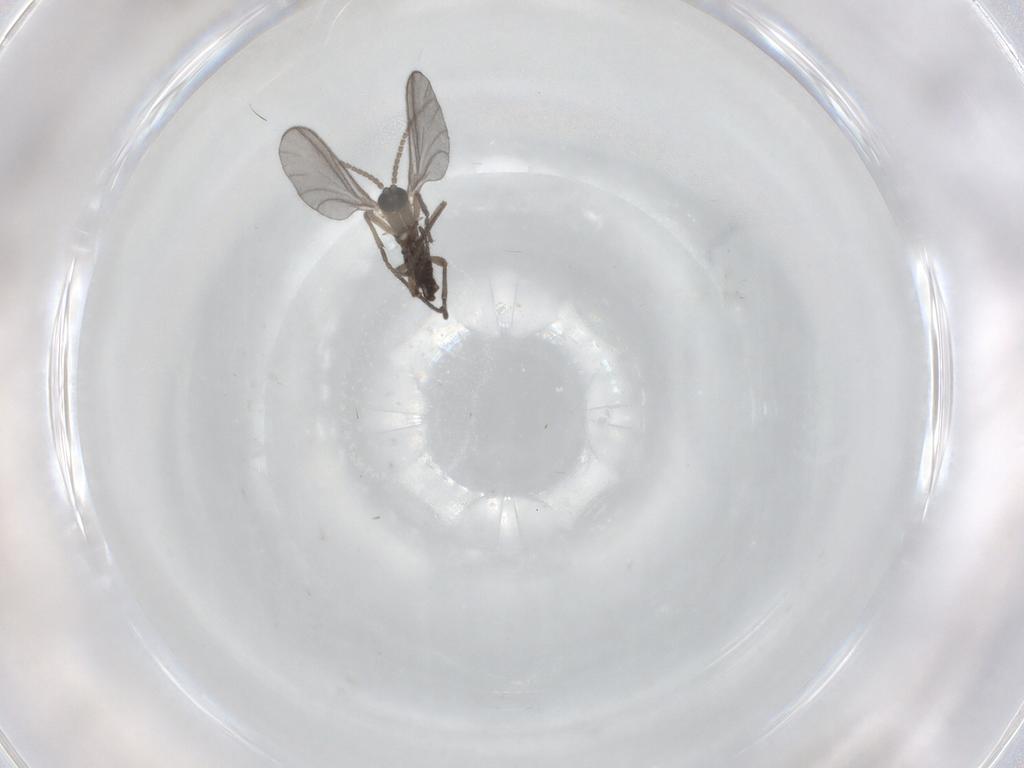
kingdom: Animalia
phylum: Arthropoda
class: Insecta
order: Diptera
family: Sciaridae
